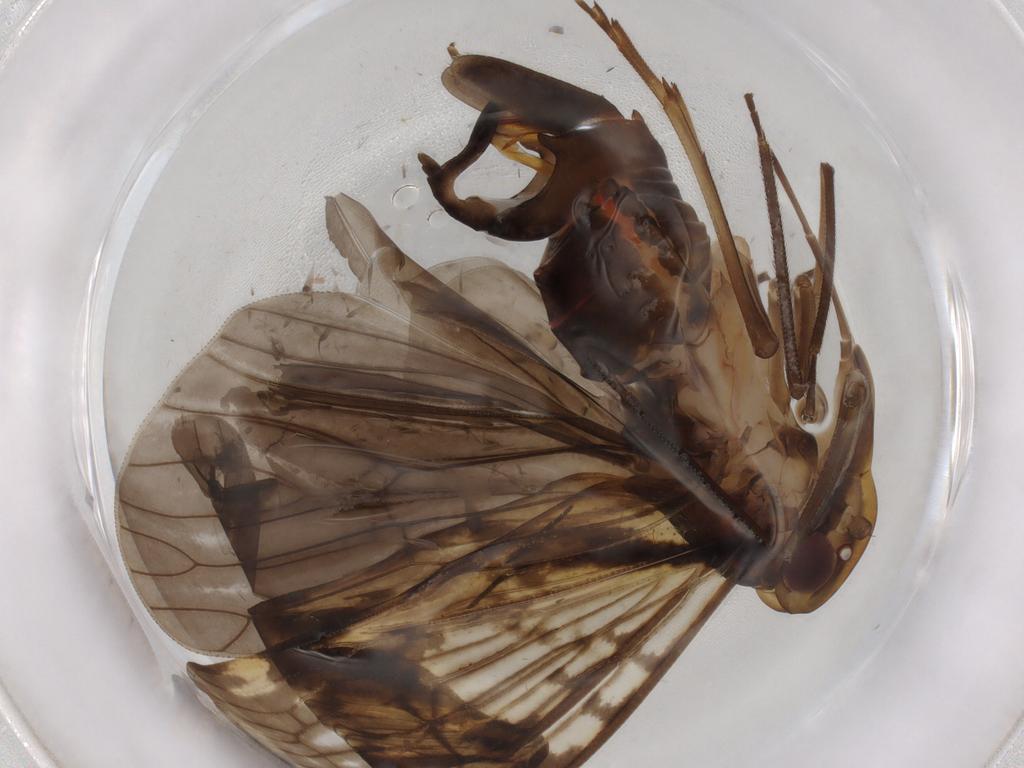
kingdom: Animalia
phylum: Arthropoda
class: Insecta
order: Hemiptera
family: Cixiidae
